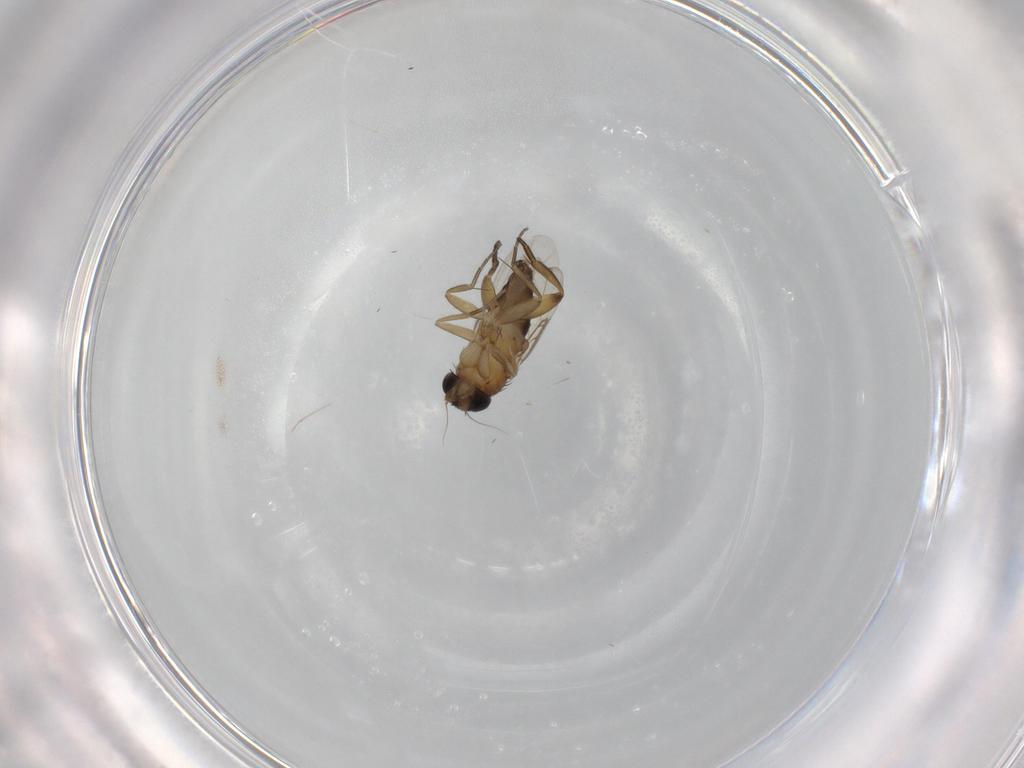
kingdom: Animalia
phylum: Arthropoda
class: Insecta
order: Diptera
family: Phoridae
